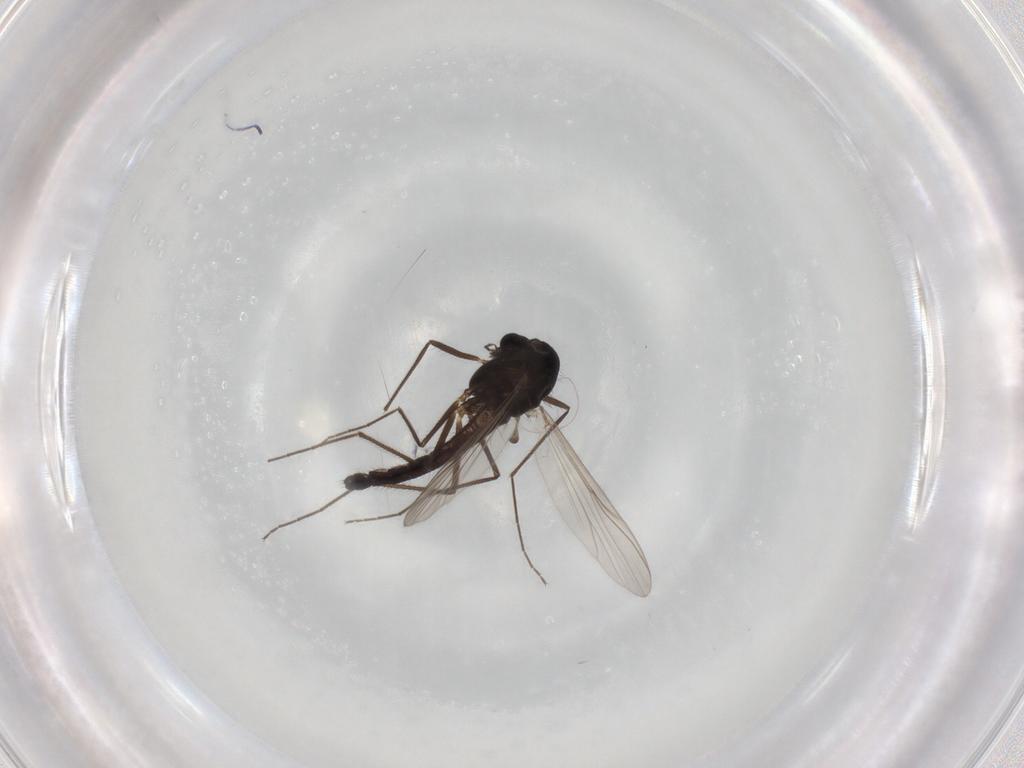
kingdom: Animalia
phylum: Arthropoda
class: Insecta
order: Diptera
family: Chironomidae
